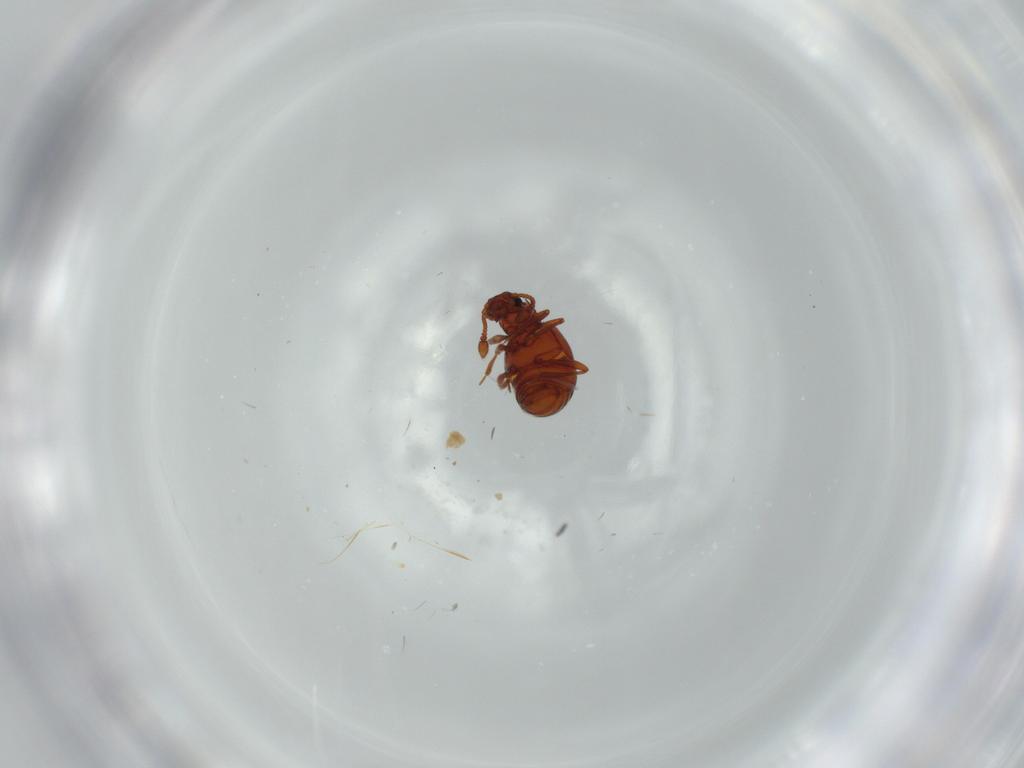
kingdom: Animalia
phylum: Arthropoda
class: Insecta
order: Coleoptera
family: Staphylinidae
